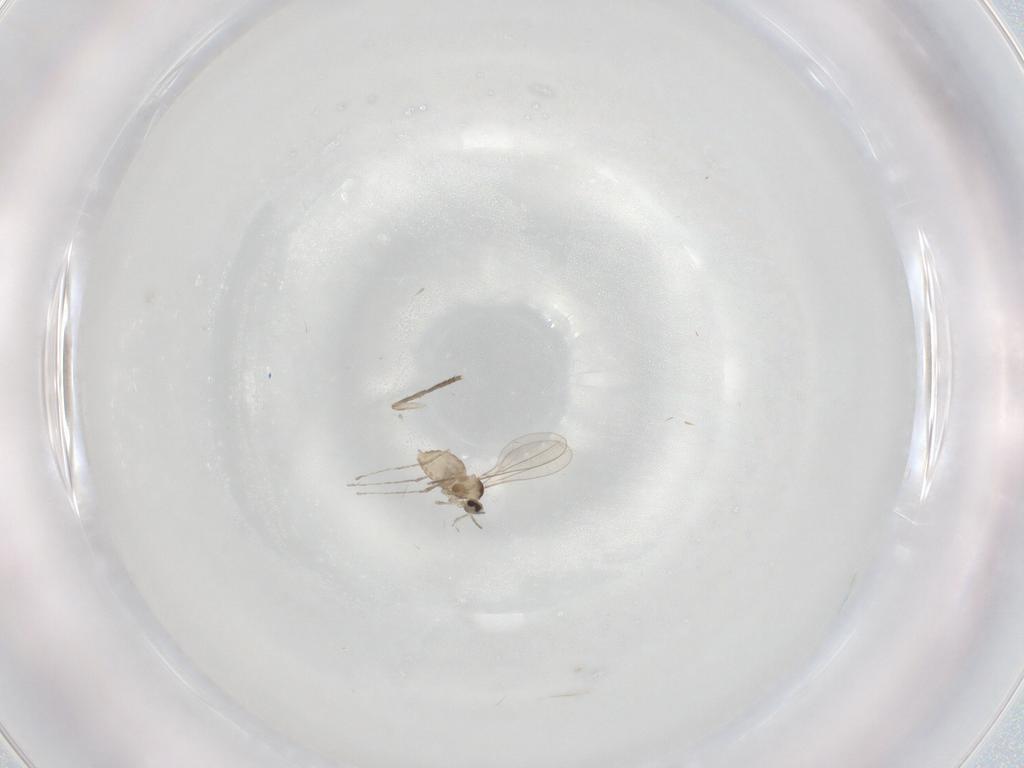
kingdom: Animalia
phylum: Arthropoda
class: Insecta
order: Diptera
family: Cecidomyiidae
